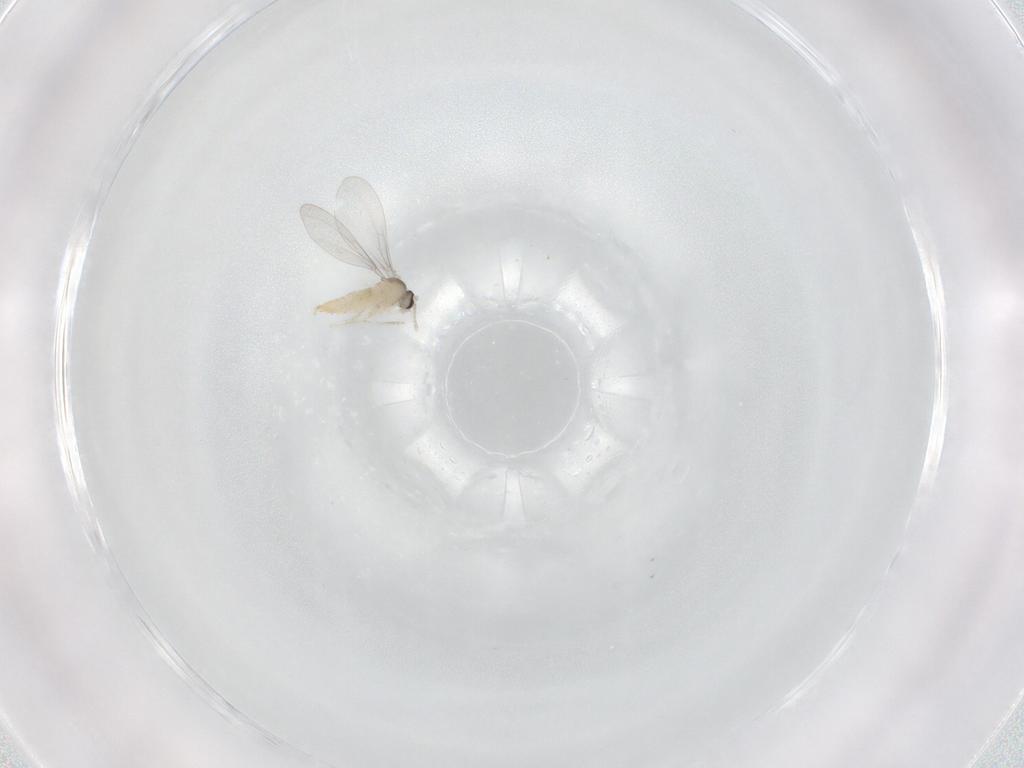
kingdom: Animalia
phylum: Arthropoda
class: Insecta
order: Diptera
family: Cecidomyiidae
